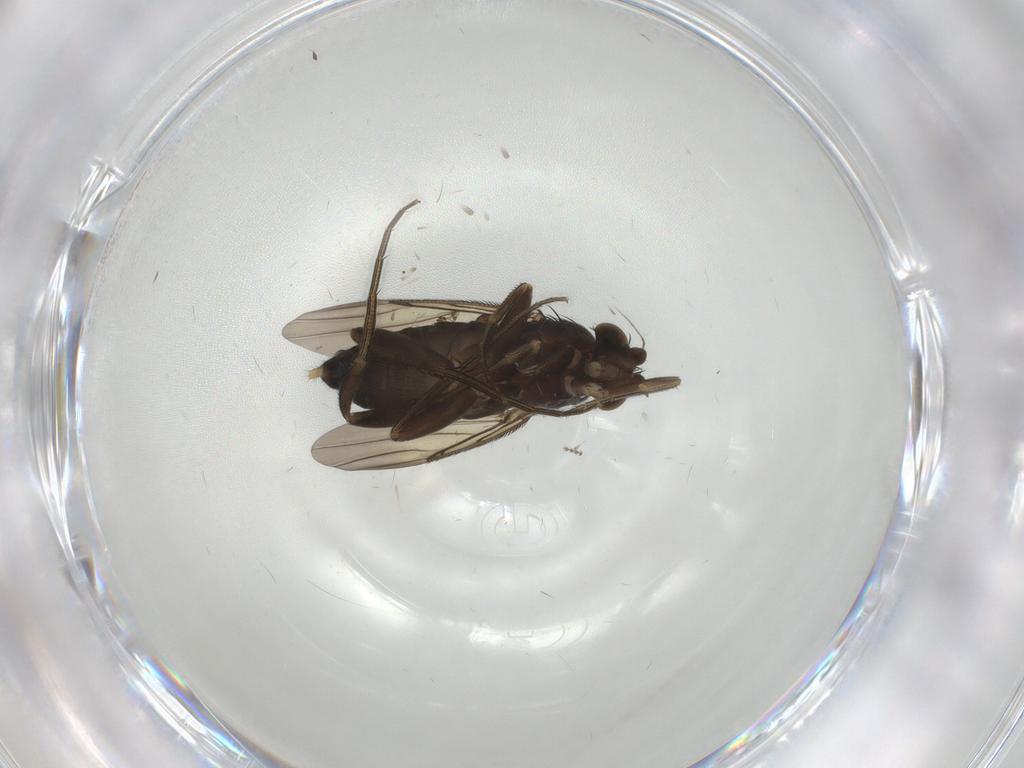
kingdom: Animalia
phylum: Arthropoda
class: Insecta
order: Diptera
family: Phoridae
